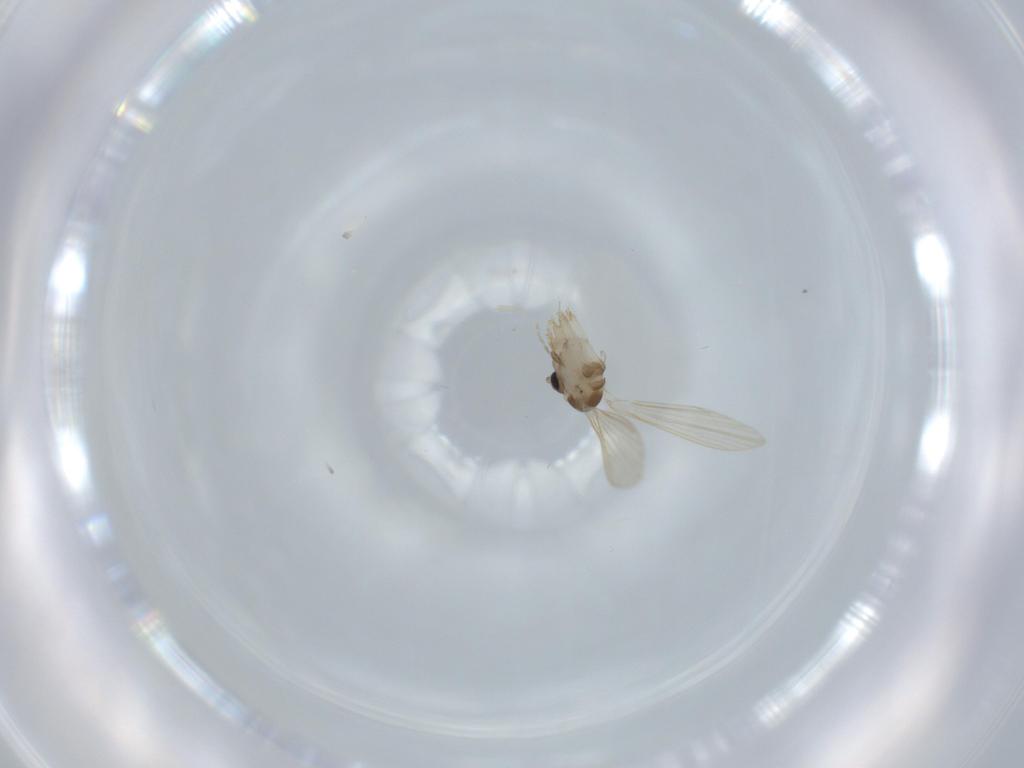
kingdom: Animalia
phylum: Arthropoda
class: Insecta
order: Diptera
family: Psychodidae
